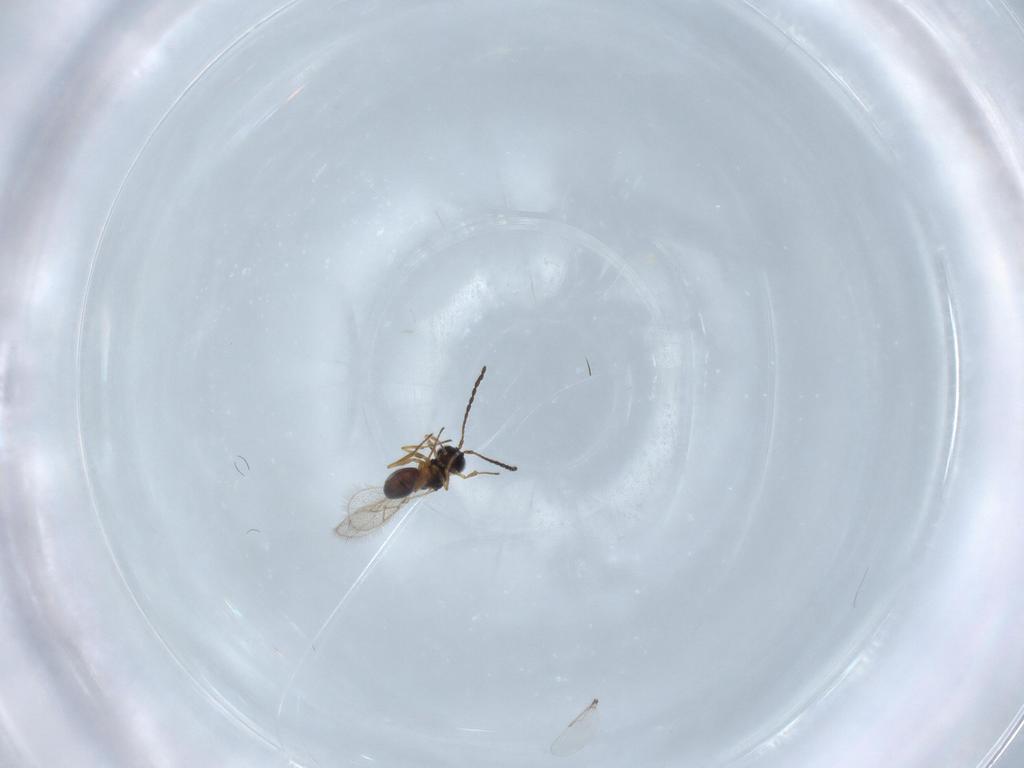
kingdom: Animalia
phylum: Arthropoda
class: Insecta
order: Hymenoptera
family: Figitidae
